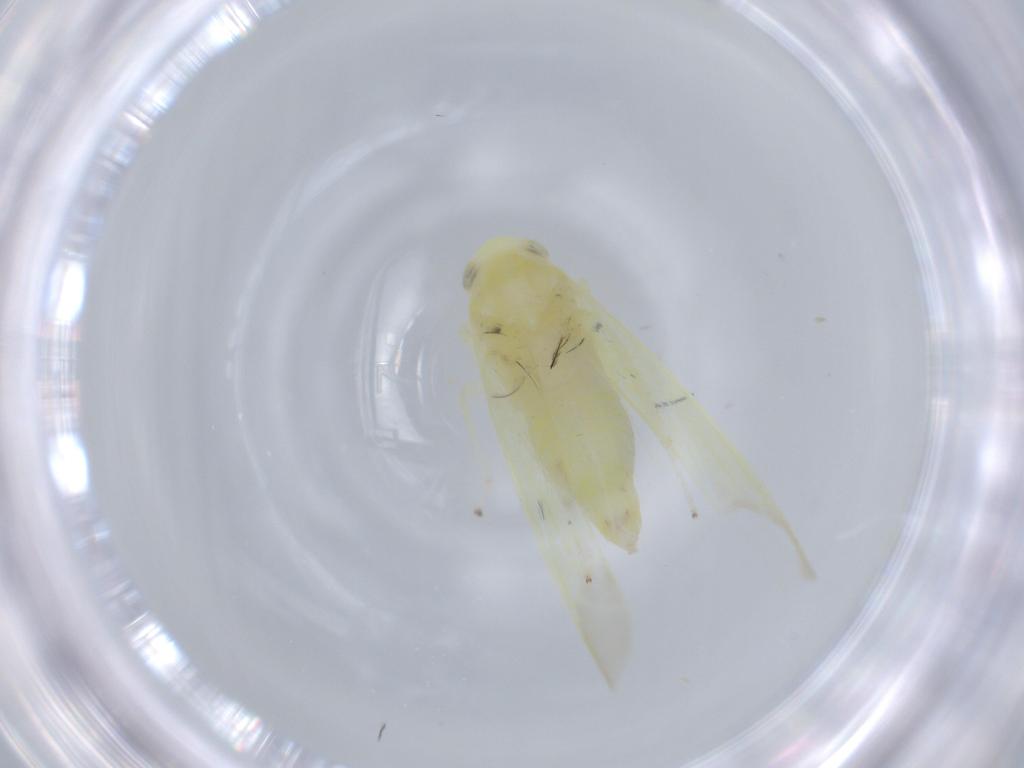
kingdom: Animalia
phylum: Arthropoda
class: Insecta
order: Hemiptera
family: Cicadellidae
